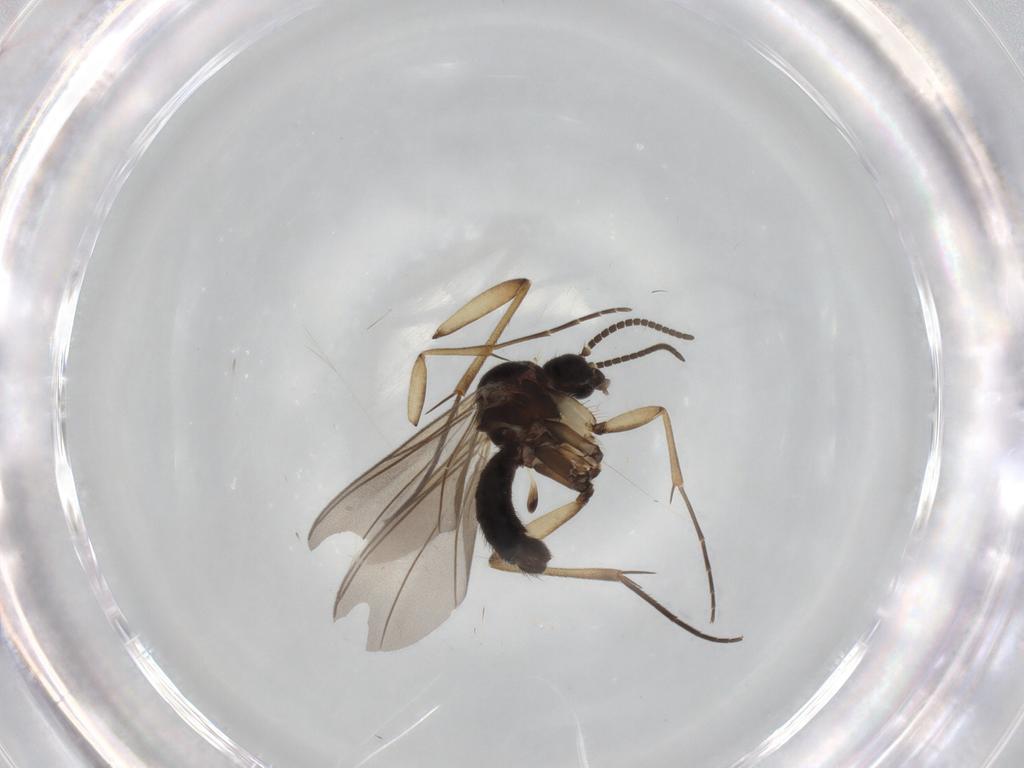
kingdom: Animalia
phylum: Arthropoda
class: Insecta
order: Diptera
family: Mycetophilidae
